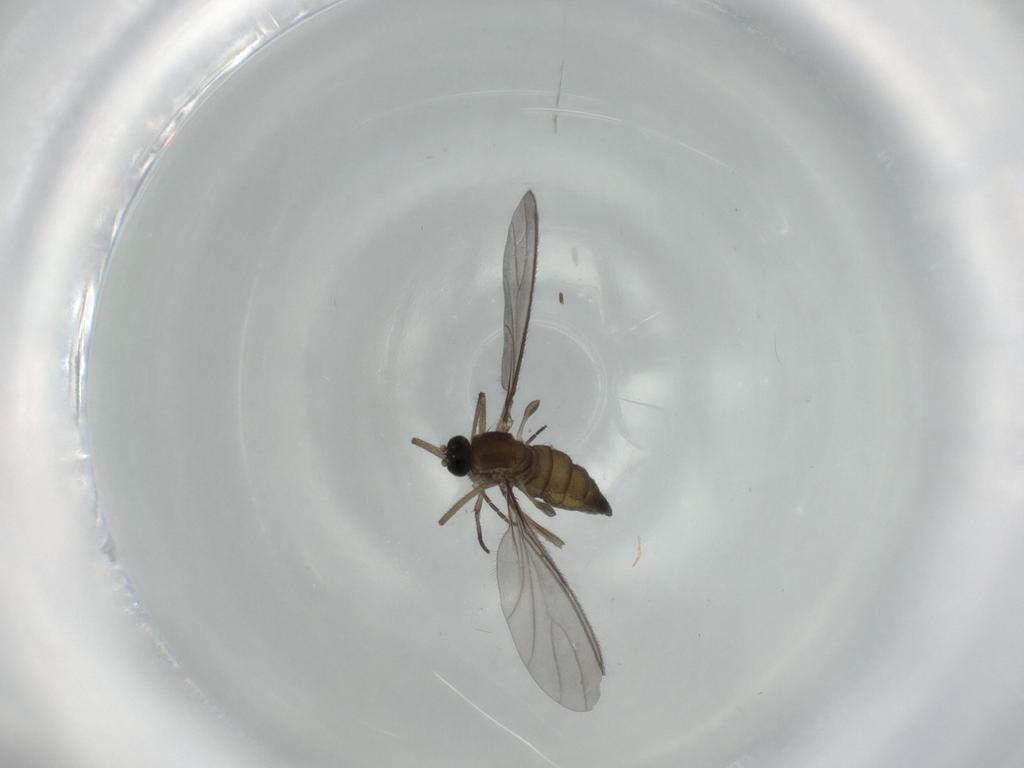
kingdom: Animalia
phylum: Arthropoda
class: Insecta
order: Diptera
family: Sciaridae
